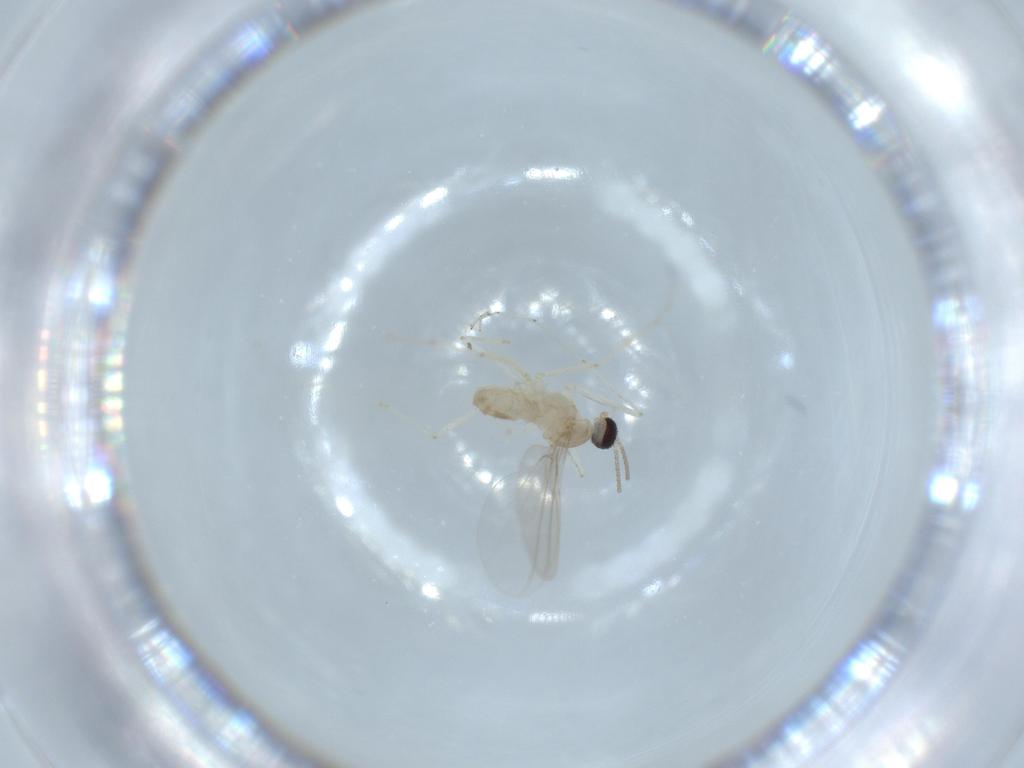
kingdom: Animalia
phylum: Arthropoda
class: Insecta
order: Diptera
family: Cecidomyiidae
